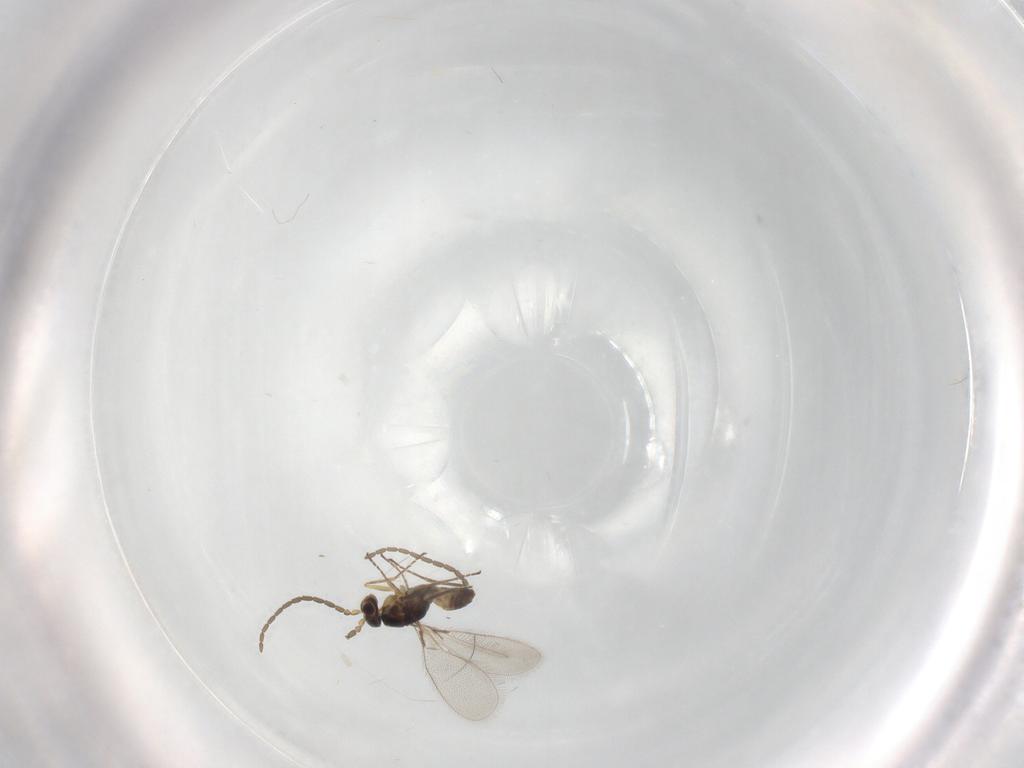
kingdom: Animalia
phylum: Arthropoda
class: Insecta
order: Hymenoptera
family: Mymaridae
